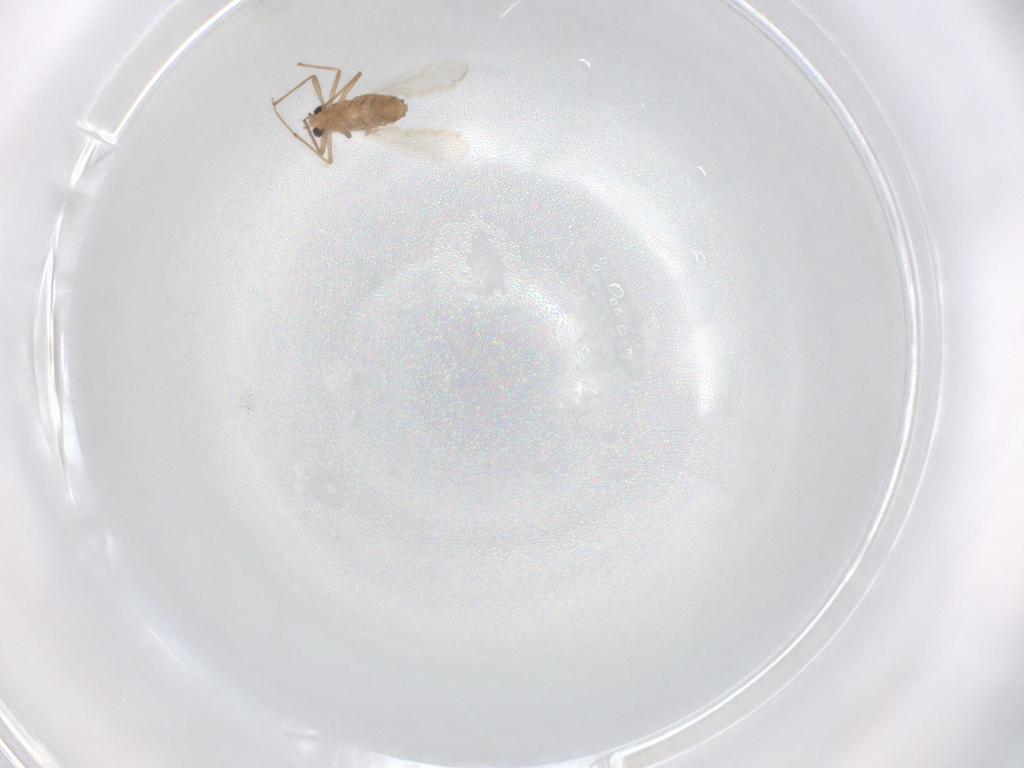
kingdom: Animalia
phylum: Arthropoda
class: Insecta
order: Diptera
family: Chironomidae
